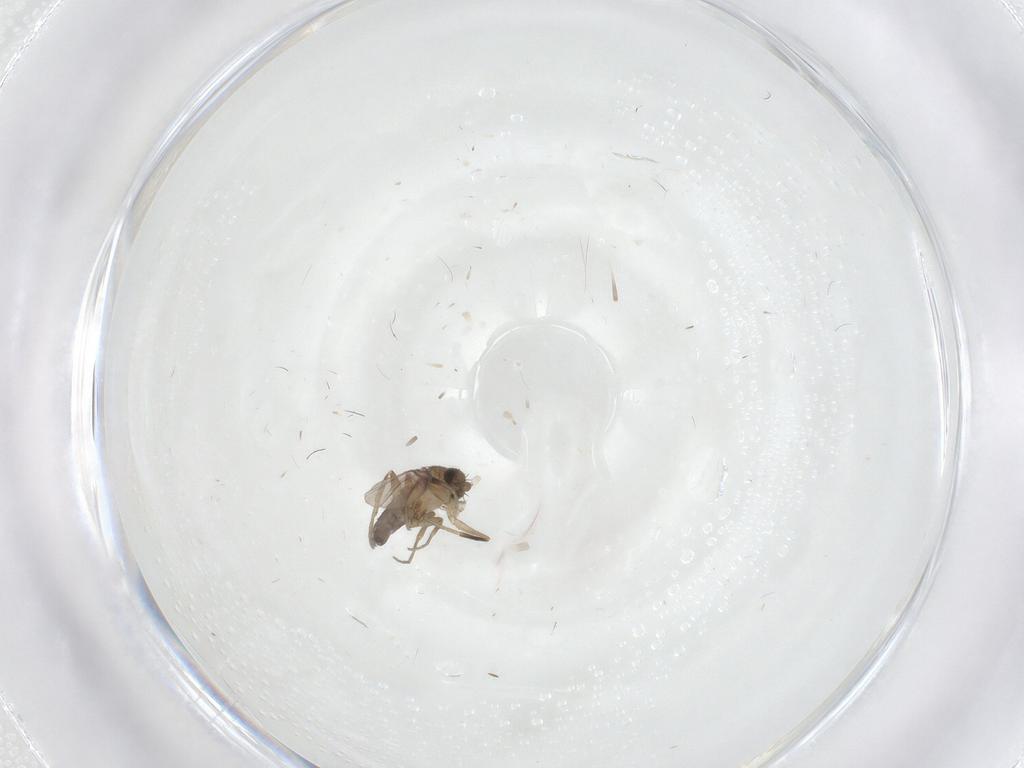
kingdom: Animalia
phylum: Arthropoda
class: Insecta
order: Diptera
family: Phoridae
